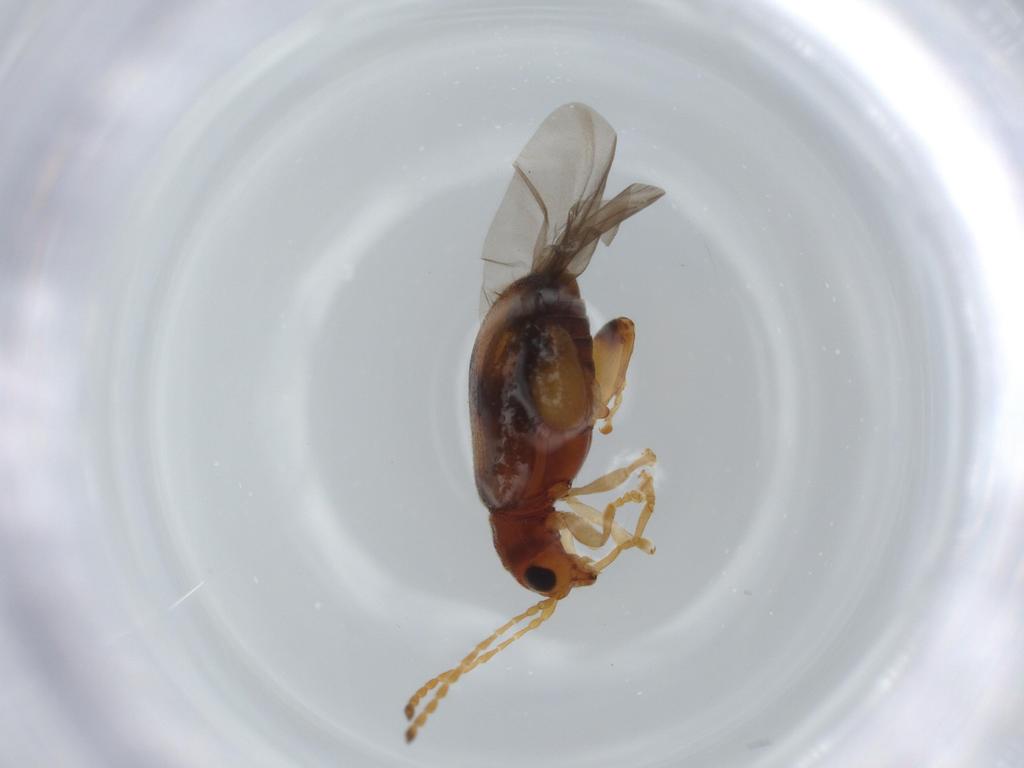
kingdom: Animalia
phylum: Arthropoda
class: Insecta
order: Coleoptera
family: Chrysomelidae
